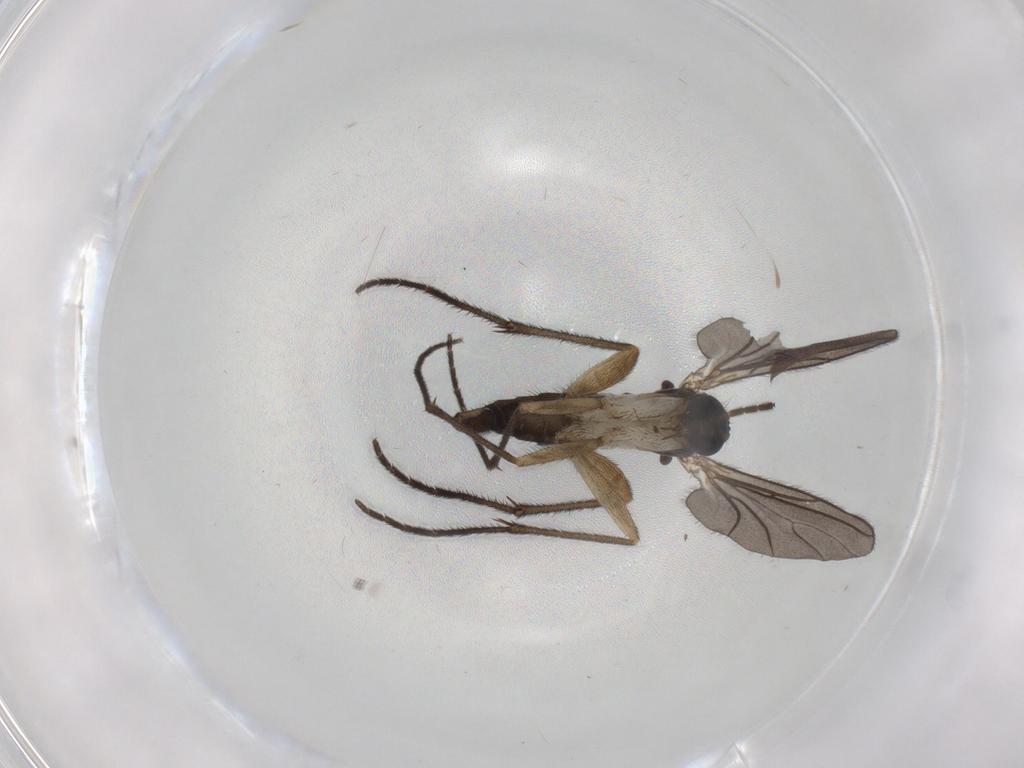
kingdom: Animalia
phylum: Arthropoda
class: Insecta
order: Diptera
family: Sciaridae
